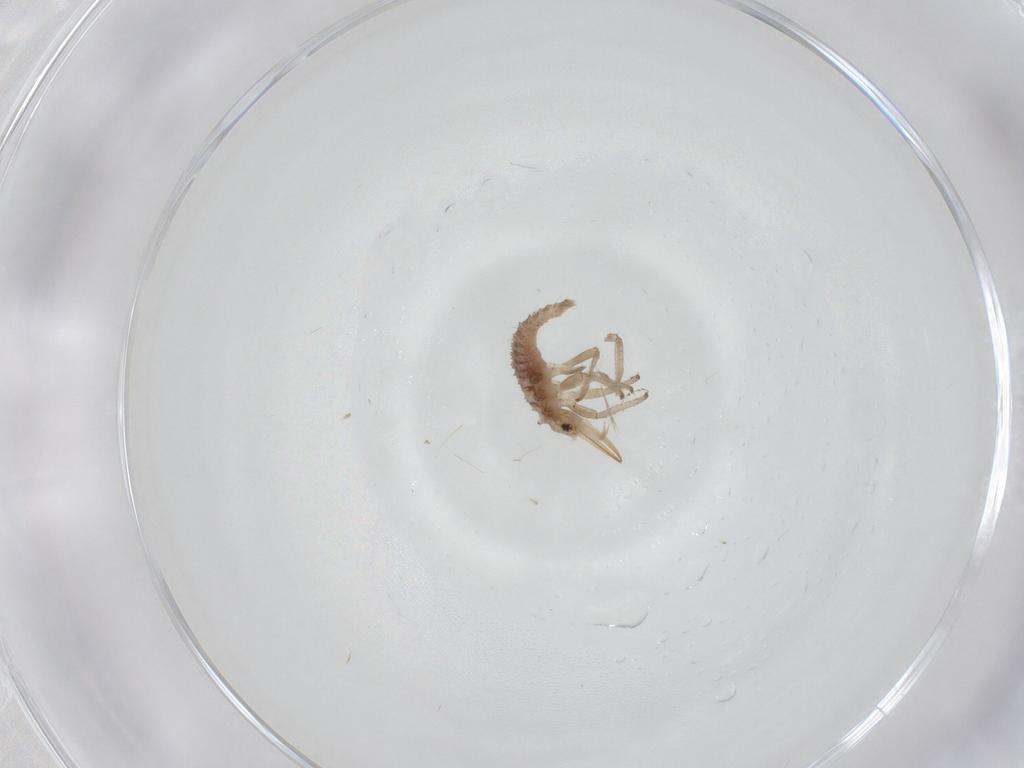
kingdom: Animalia
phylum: Arthropoda
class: Insecta
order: Neuroptera
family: Chrysopidae
